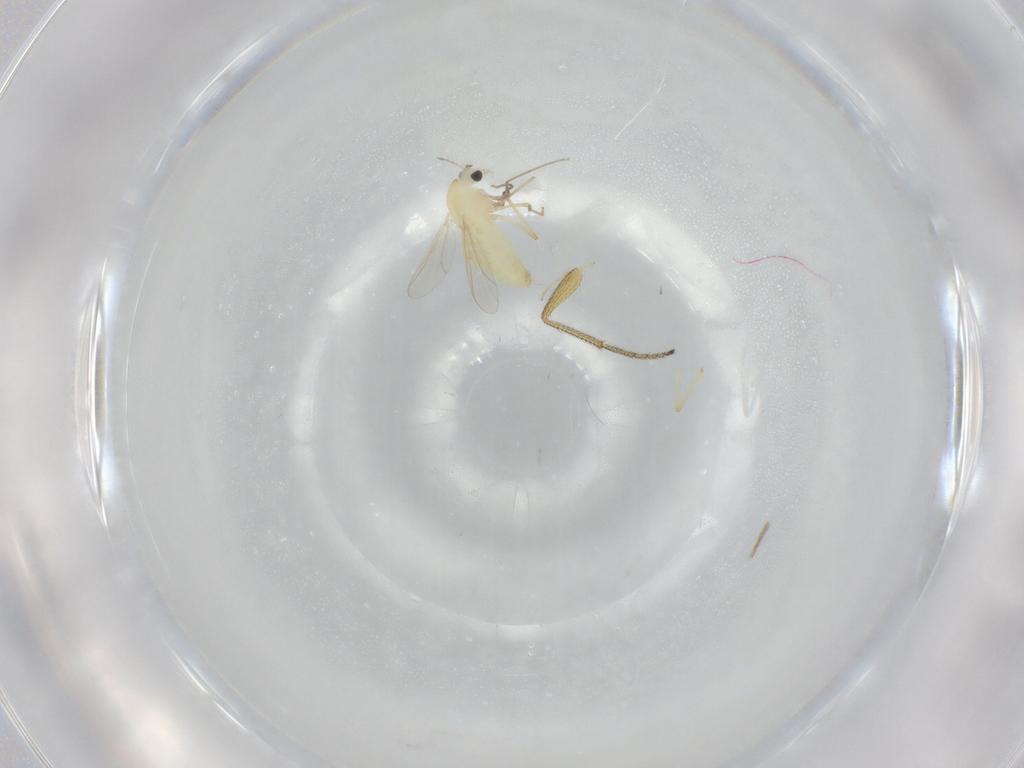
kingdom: Animalia
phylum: Arthropoda
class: Insecta
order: Diptera
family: Chironomidae
